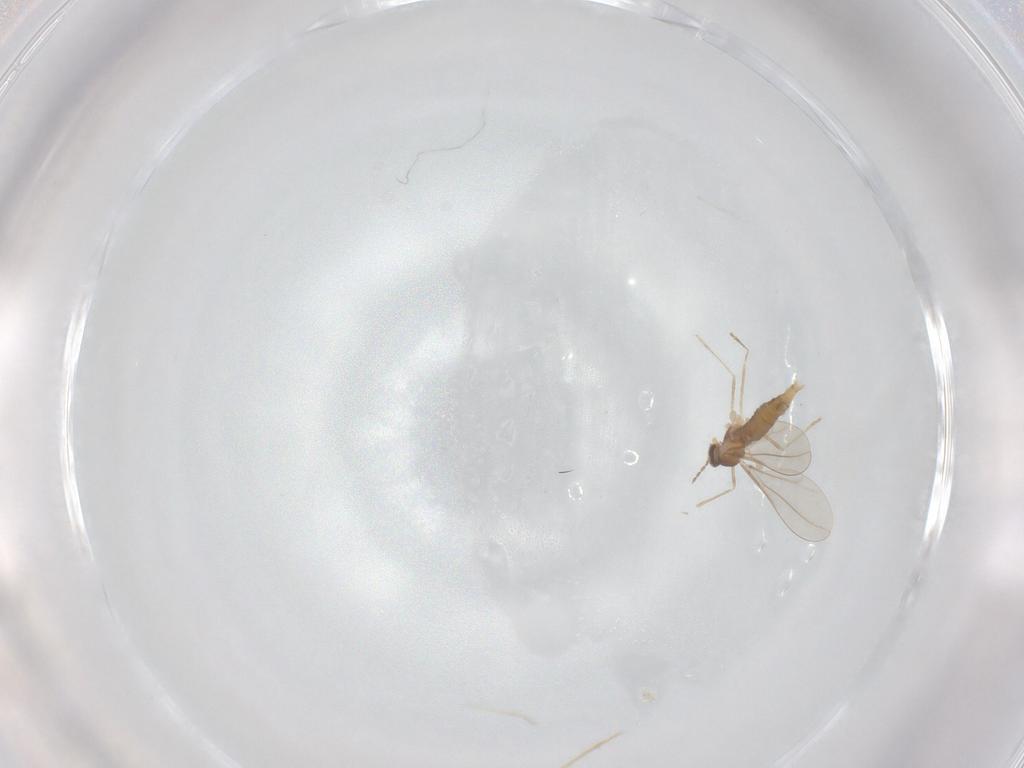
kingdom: Animalia
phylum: Arthropoda
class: Insecta
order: Diptera
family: Cecidomyiidae
